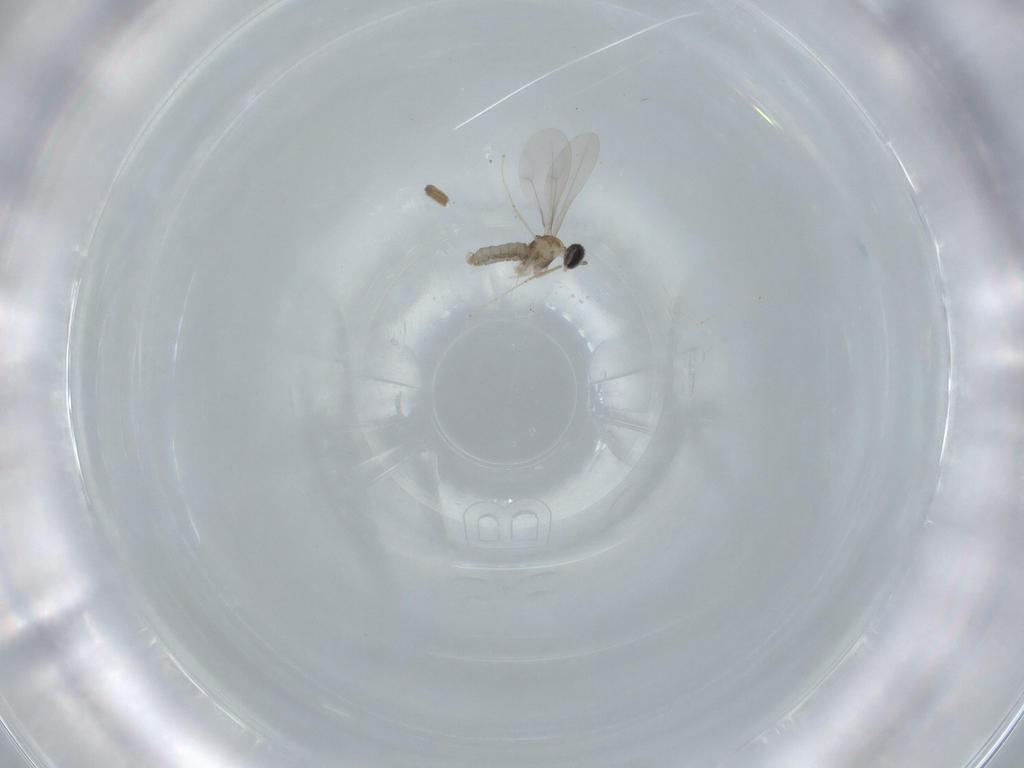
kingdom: Animalia
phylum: Arthropoda
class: Insecta
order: Diptera
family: Cecidomyiidae
